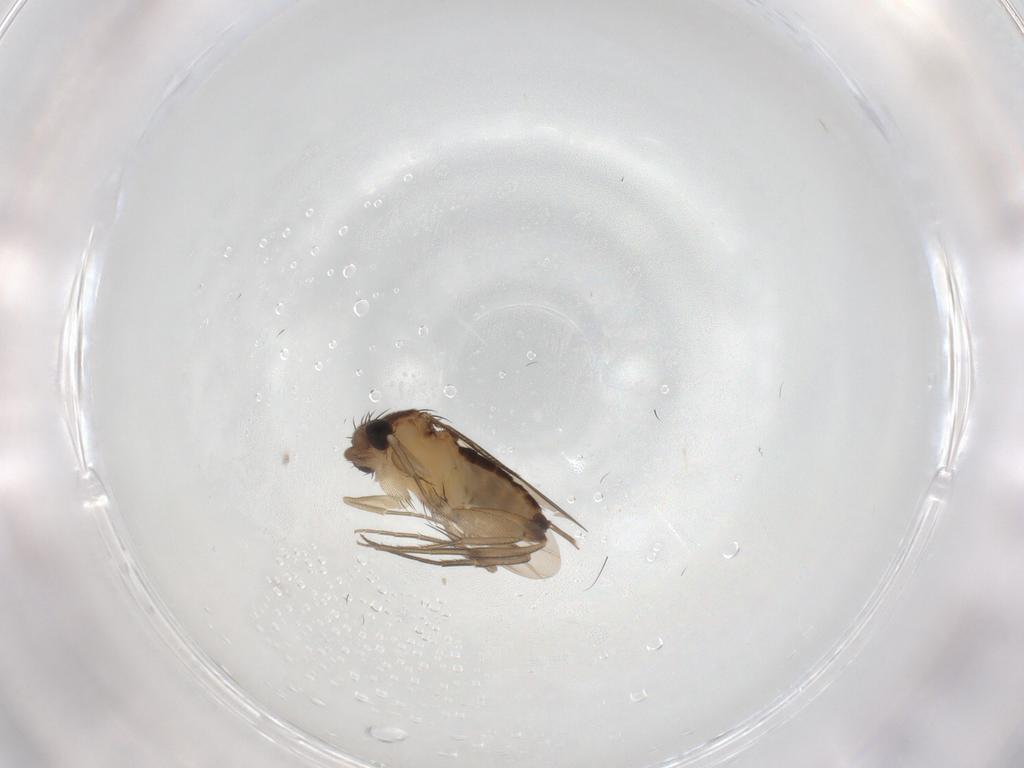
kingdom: Animalia
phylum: Arthropoda
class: Insecta
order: Diptera
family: Phoridae
